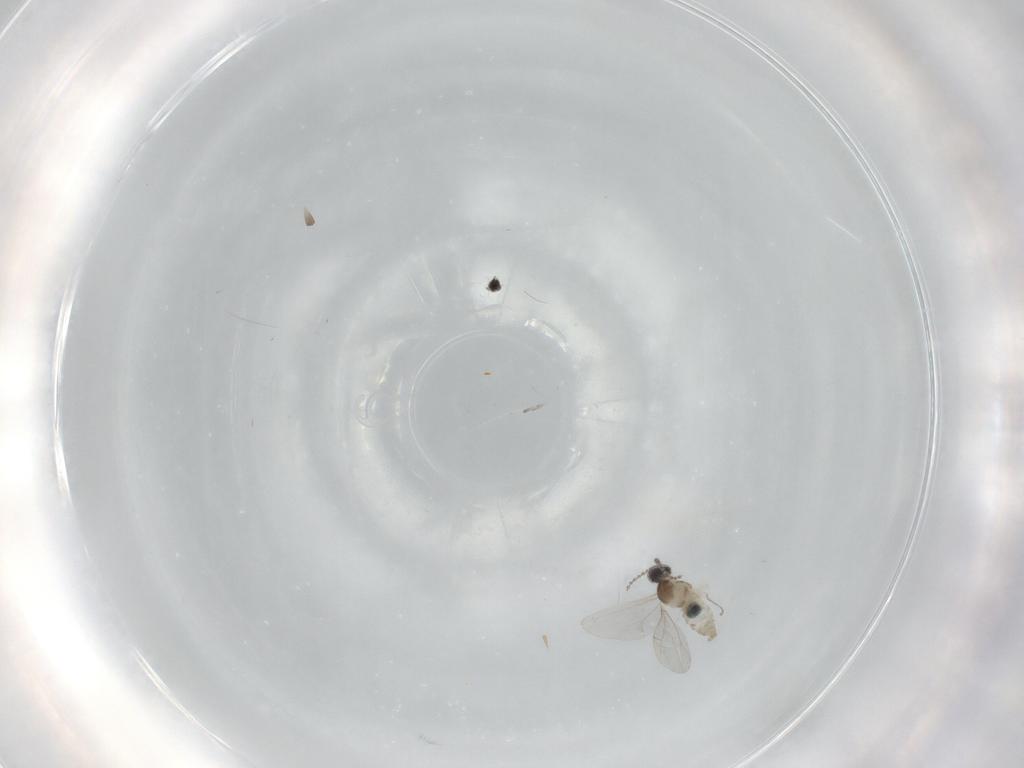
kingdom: Animalia
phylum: Arthropoda
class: Insecta
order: Diptera
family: Cecidomyiidae
